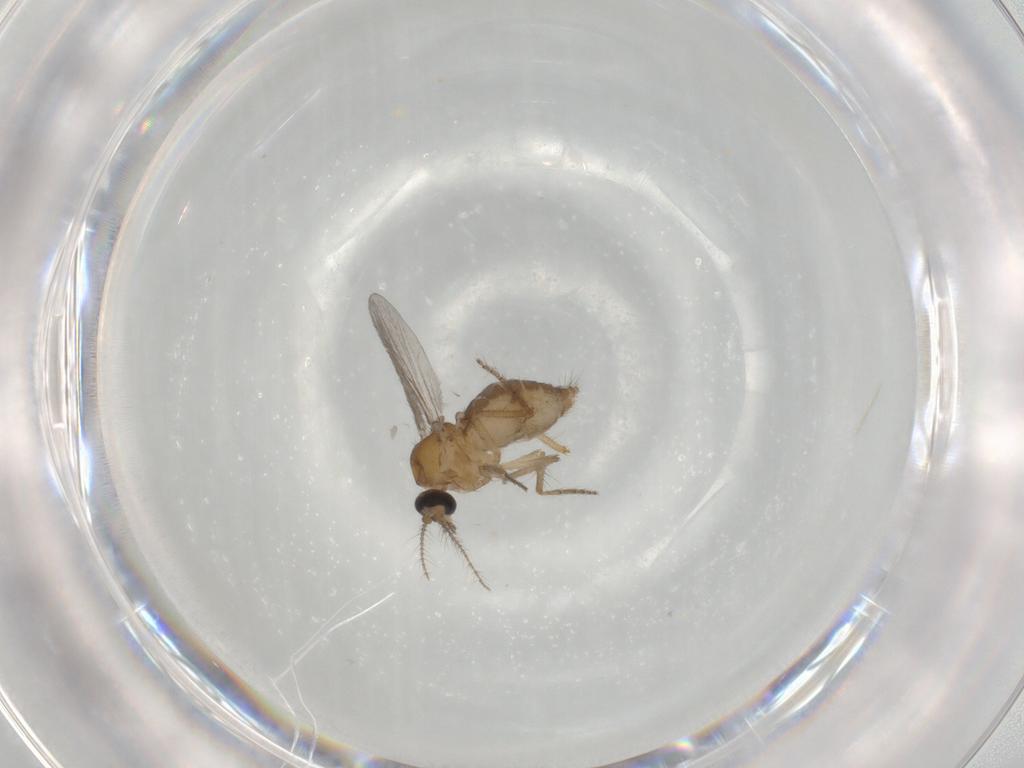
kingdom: Animalia
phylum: Arthropoda
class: Insecta
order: Diptera
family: Ceratopogonidae
